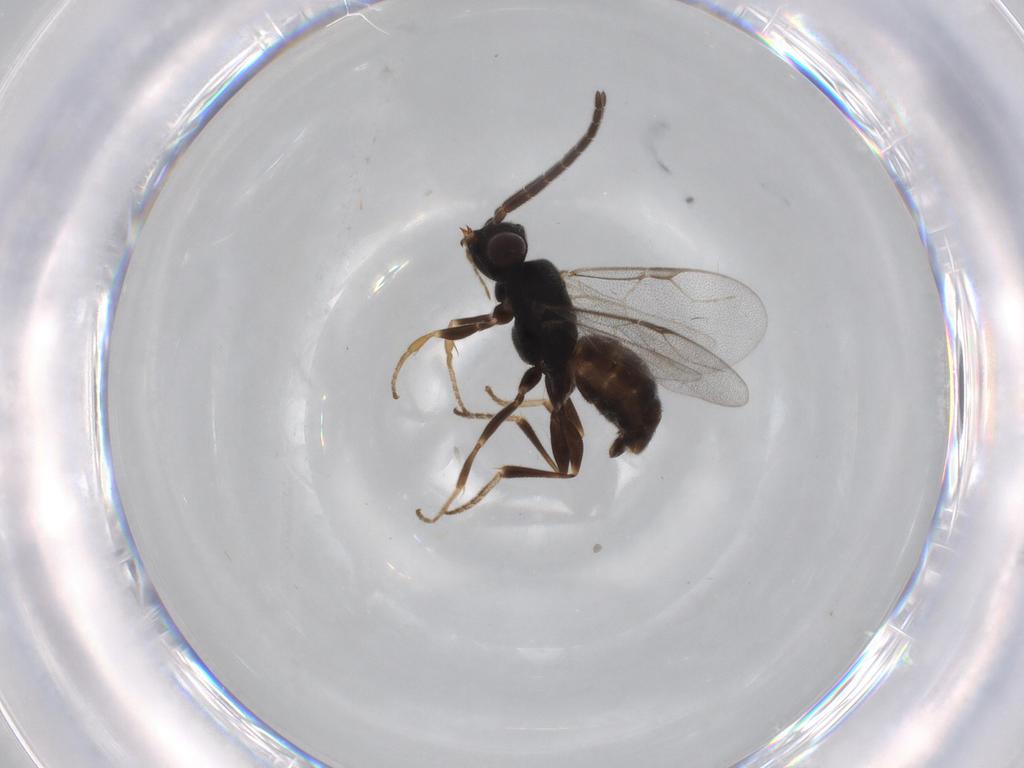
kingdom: Animalia
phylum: Arthropoda
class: Insecta
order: Hymenoptera
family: Dryinidae
